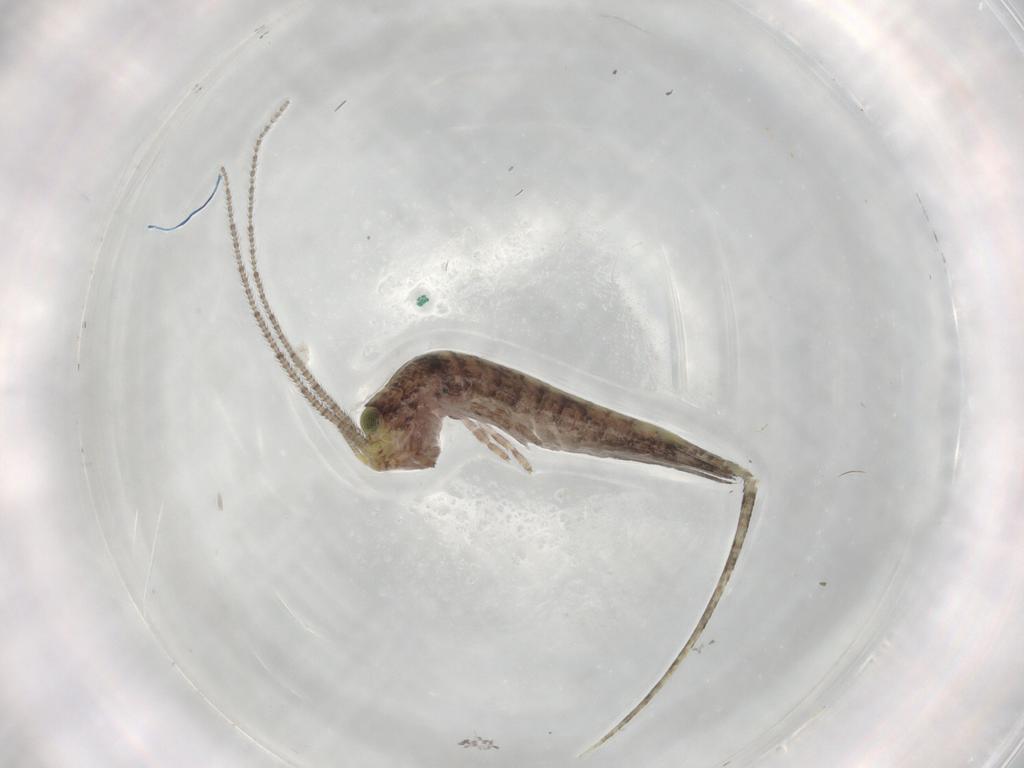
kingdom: Animalia
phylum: Arthropoda
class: Insecta
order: Archaeognatha
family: Machilidae
